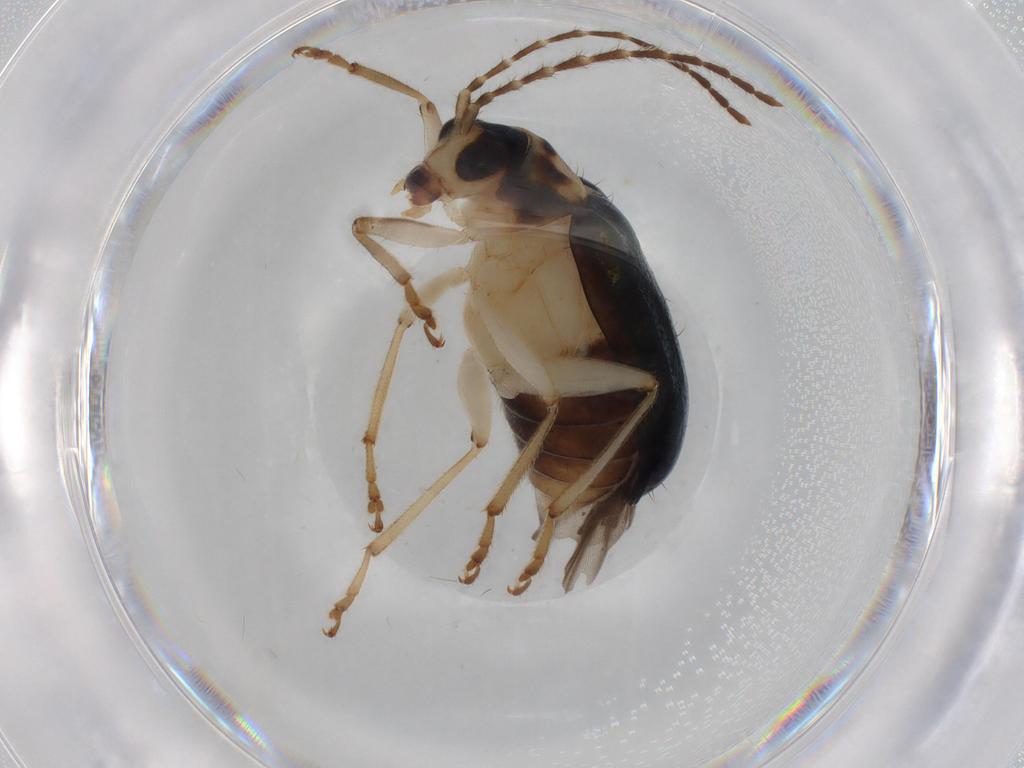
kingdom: Animalia
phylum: Arthropoda
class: Insecta
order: Coleoptera
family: Chrysomelidae
